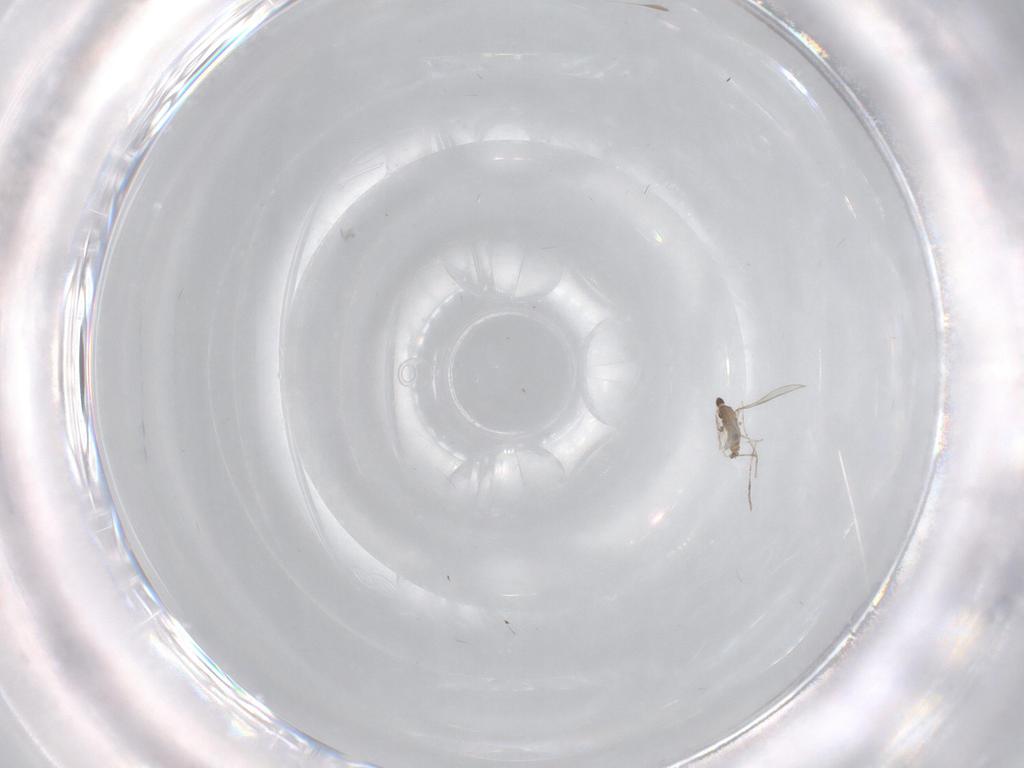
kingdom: Animalia
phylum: Arthropoda
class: Insecta
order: Diptera
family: Cecidomyiidae
